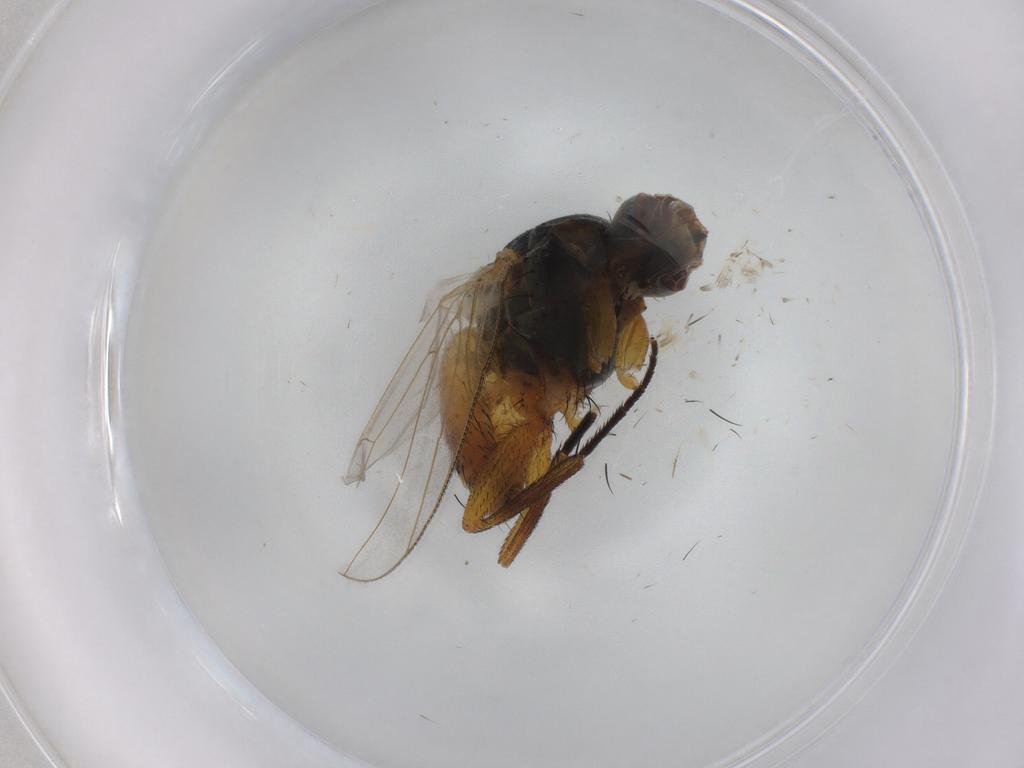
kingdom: Animalia
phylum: Arthropoda
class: Insecta
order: Diptera
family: Muscidae
